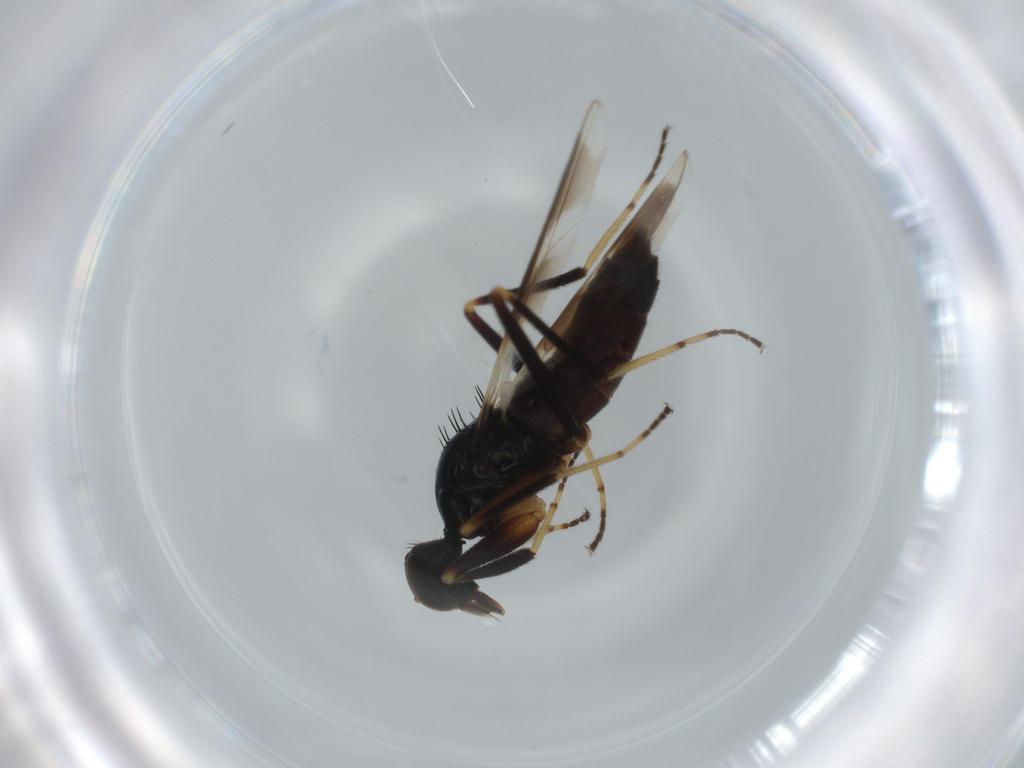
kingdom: Animalia
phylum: Arthropoda
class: Insecta
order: Diptera
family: Hybotidae
